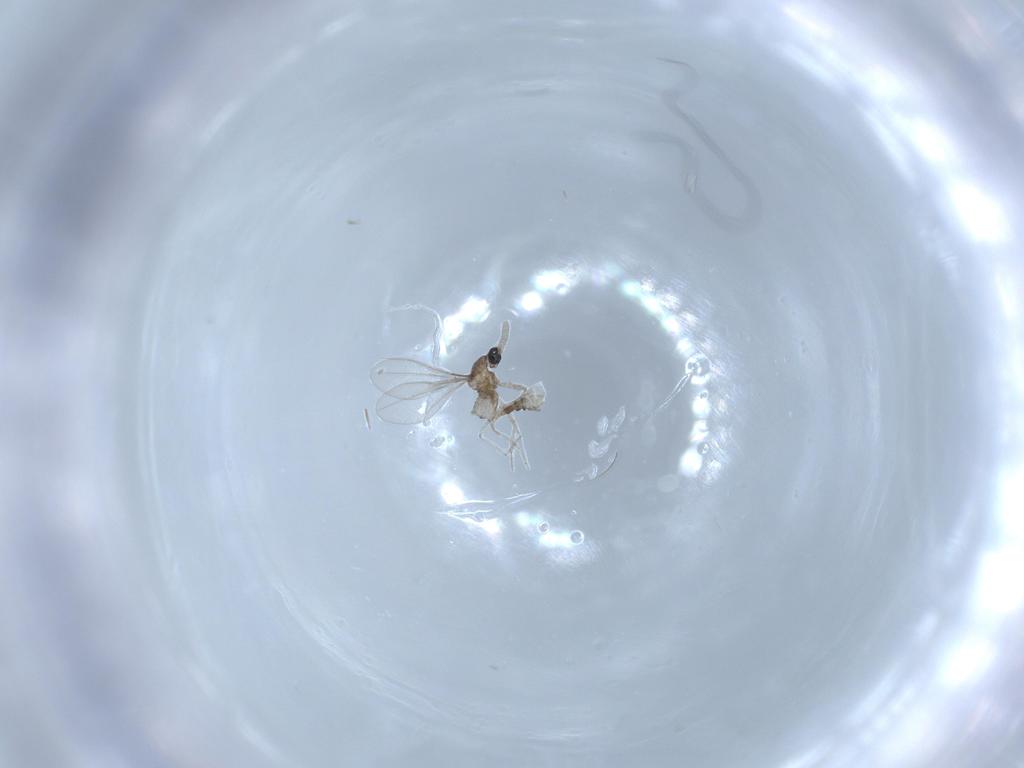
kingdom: Animalia
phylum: Arthropoda
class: Insecta
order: Diptera
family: Cecidomyiidae
